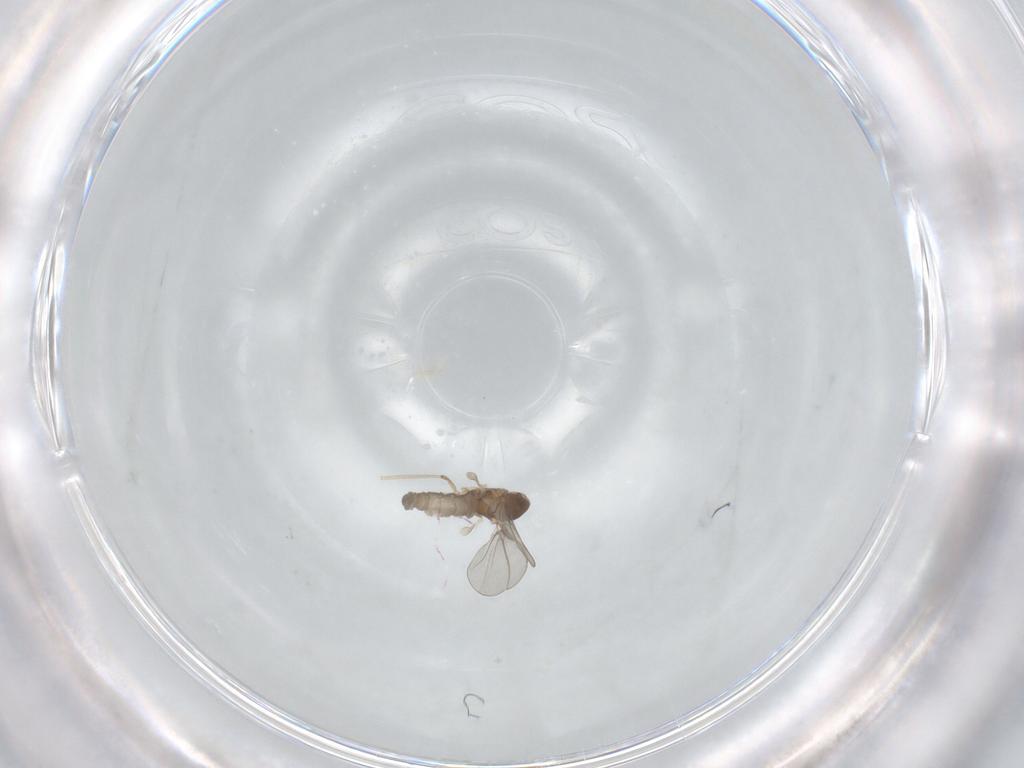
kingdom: Animalia
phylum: Arthropoda
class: Insecta
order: Diptera
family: Cecidomyiidae
